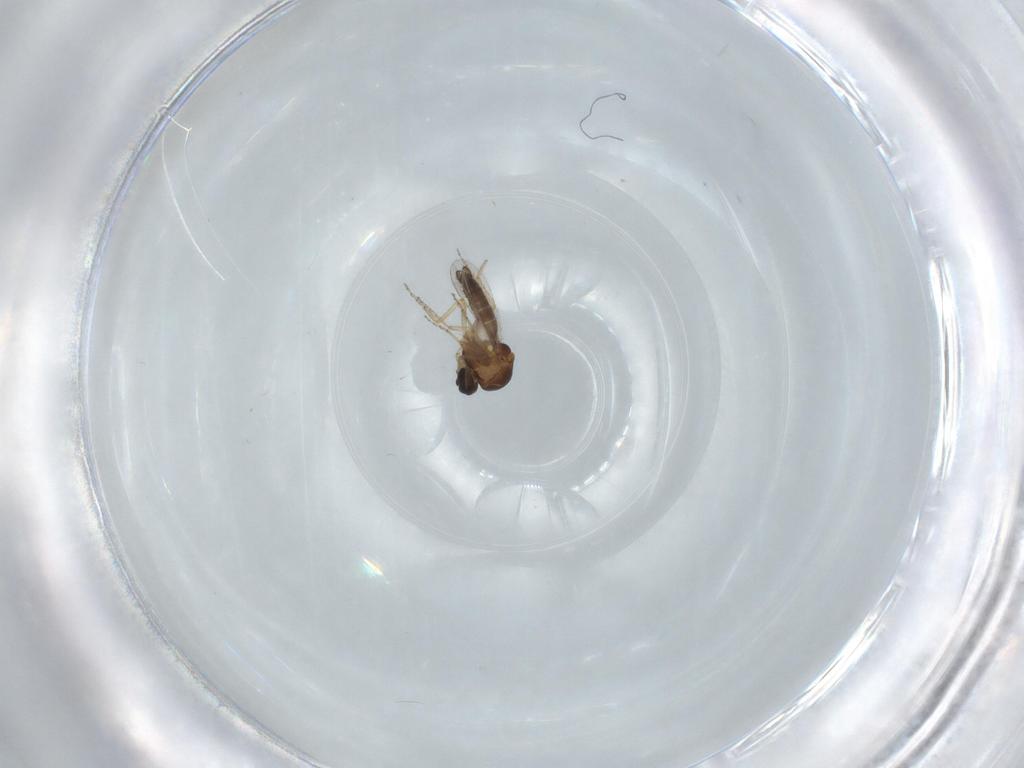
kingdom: Animalia
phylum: Arthropoda
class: Insecta
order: Diptera
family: Ceratopogonidae
